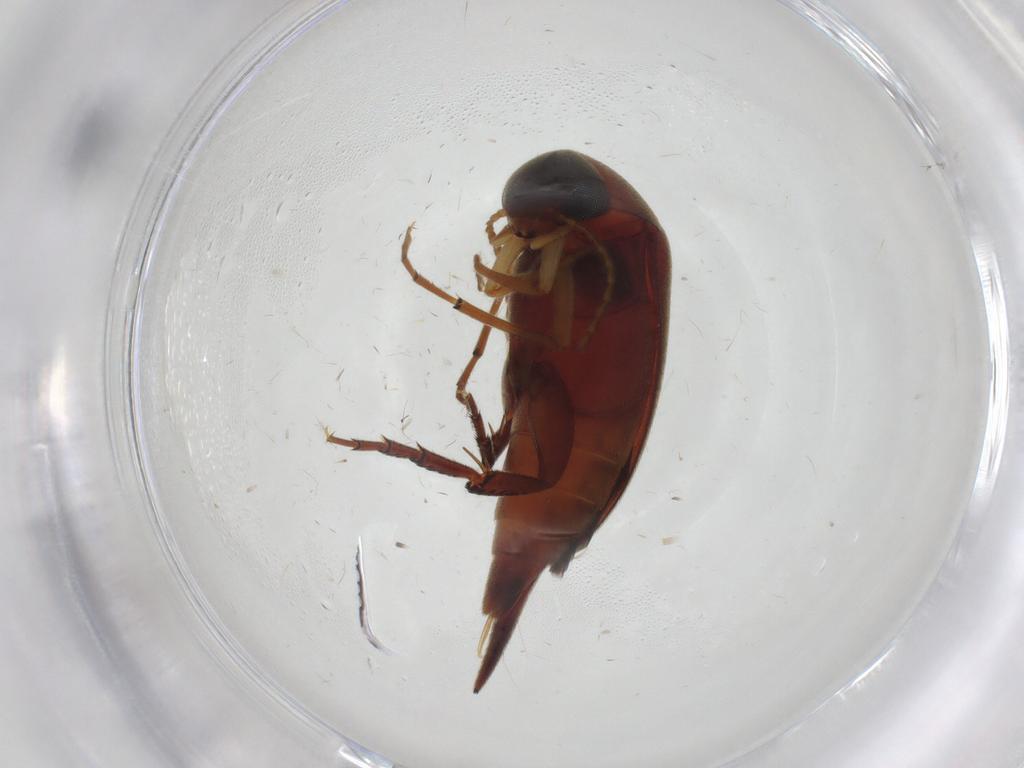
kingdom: Animalia
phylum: Arthropoda
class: Insecta
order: Coleoptera
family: Mordellidae
